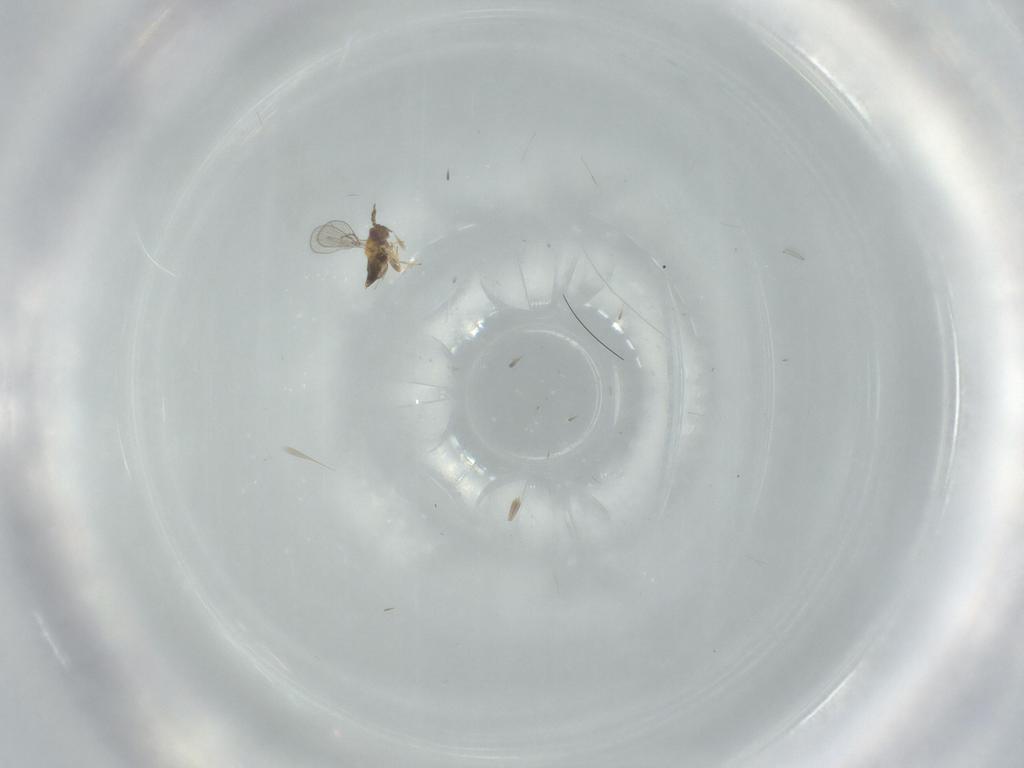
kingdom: Animalia
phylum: Arthropoda
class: Insecta
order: Hymenoptera
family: Trichogrammatidae
